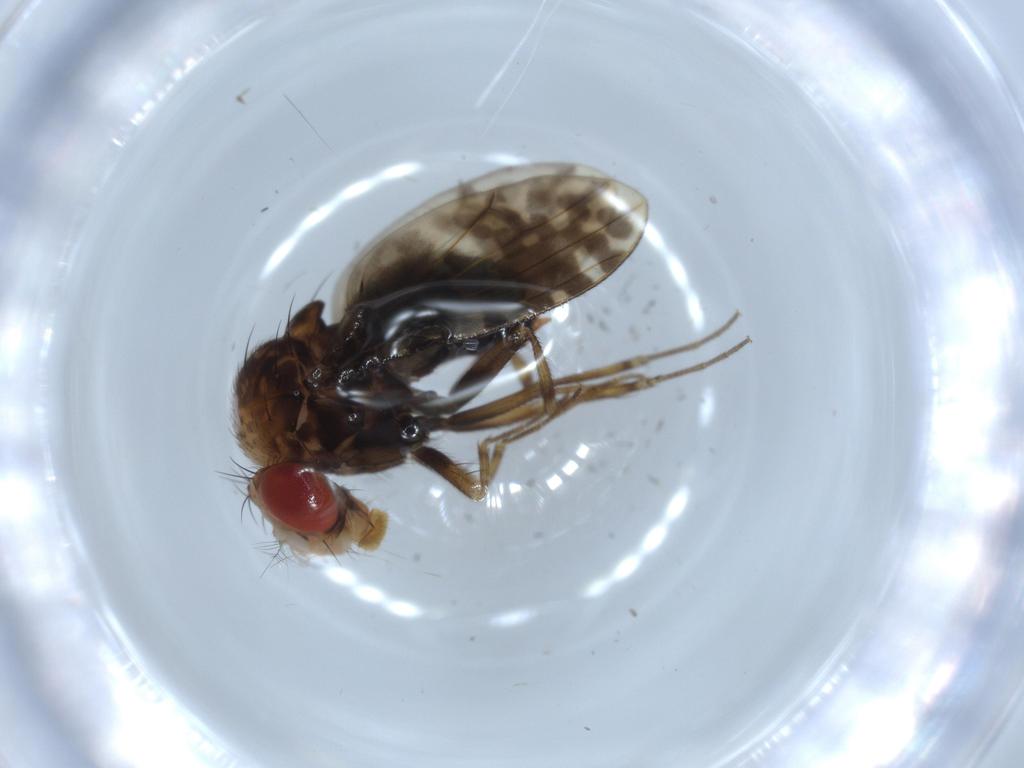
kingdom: Animalia
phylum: Arthropoda
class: Insecta
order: Diptera
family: Drosophilidae
